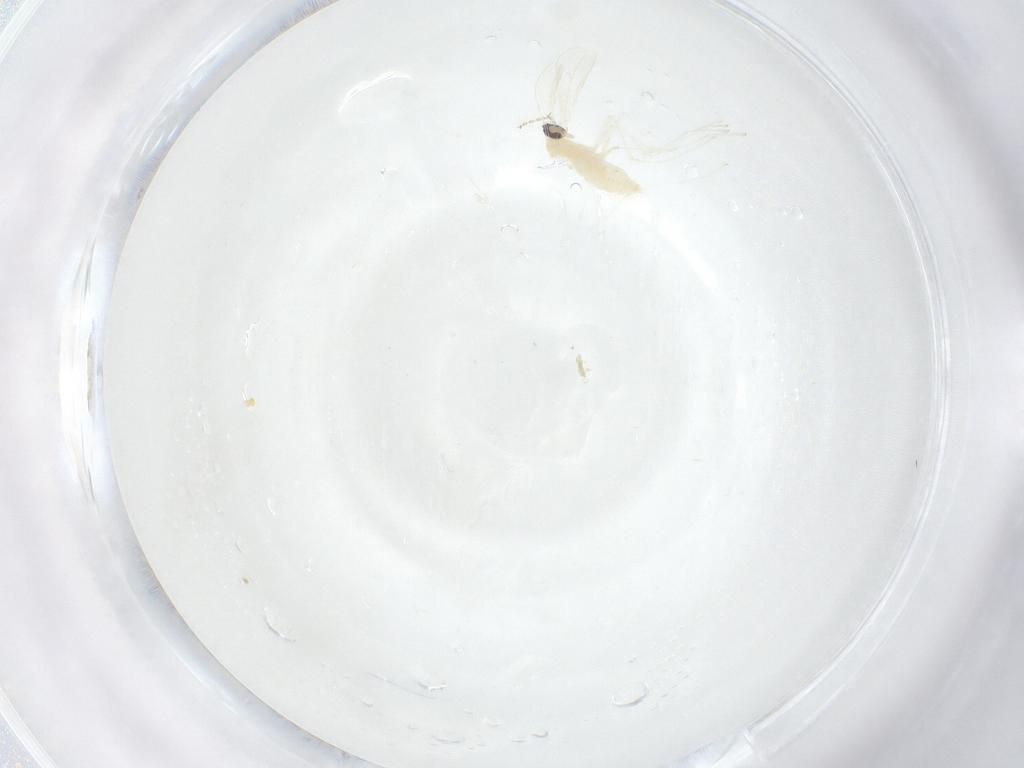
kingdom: Animalia
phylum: Arthropoda
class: Insecta
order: Diptera
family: Cecidomyiidae
